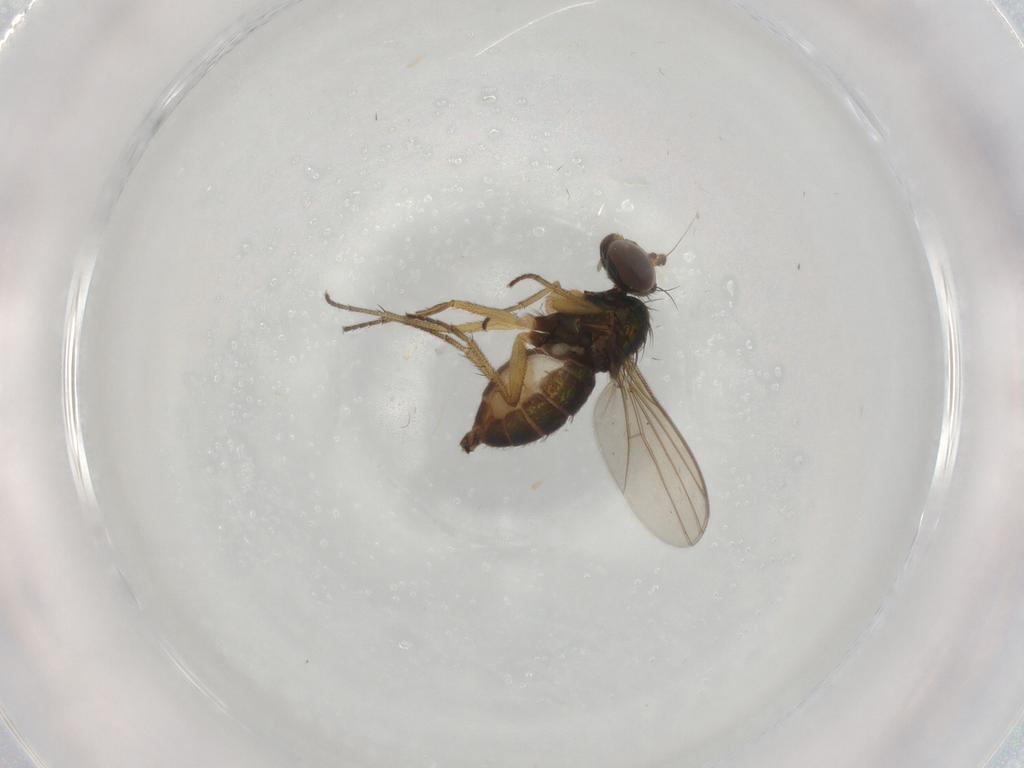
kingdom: Animalia
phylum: Arthropoda
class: Insecta
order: Diptera
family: Dolichopodidae
